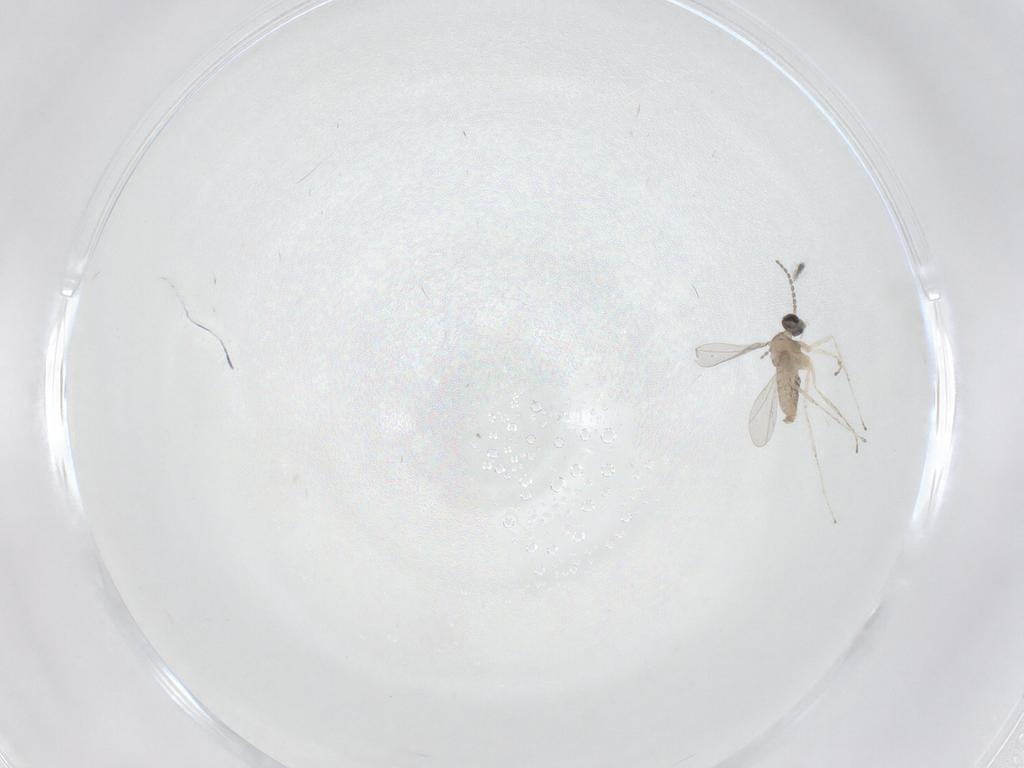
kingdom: Animalia
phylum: Arthropoda
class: Insecta
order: Diptera
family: Cecidomyiidae
